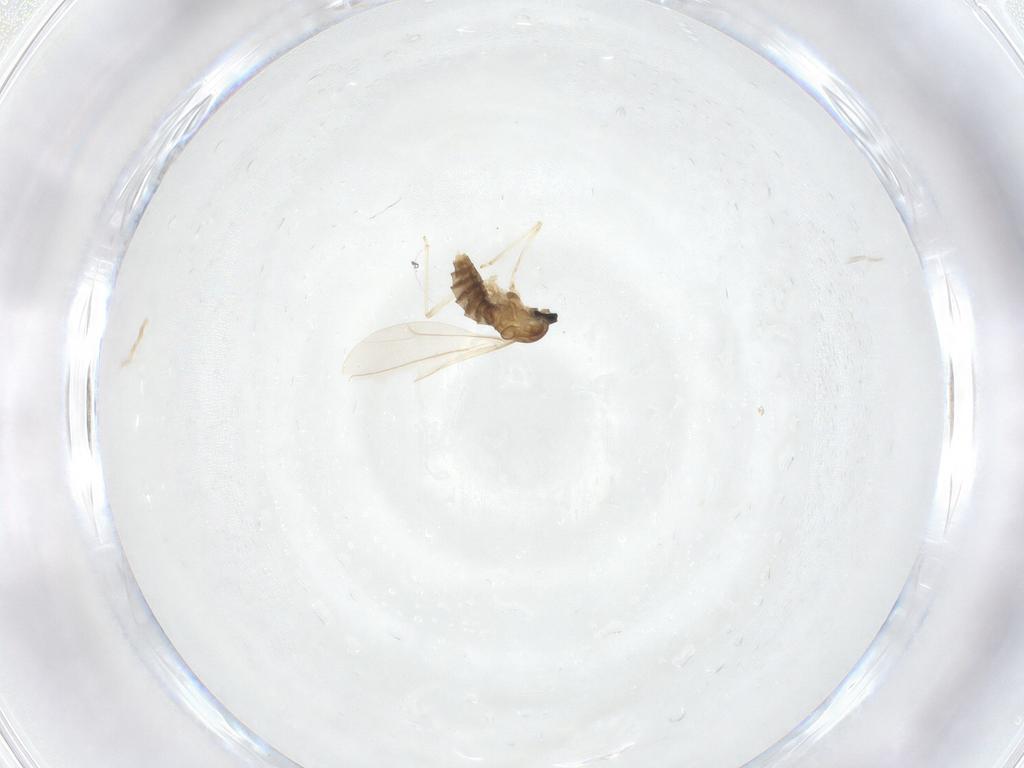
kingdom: Animalia
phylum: Arthropoda
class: Insecta
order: Diptera
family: Cecidomyiidae
